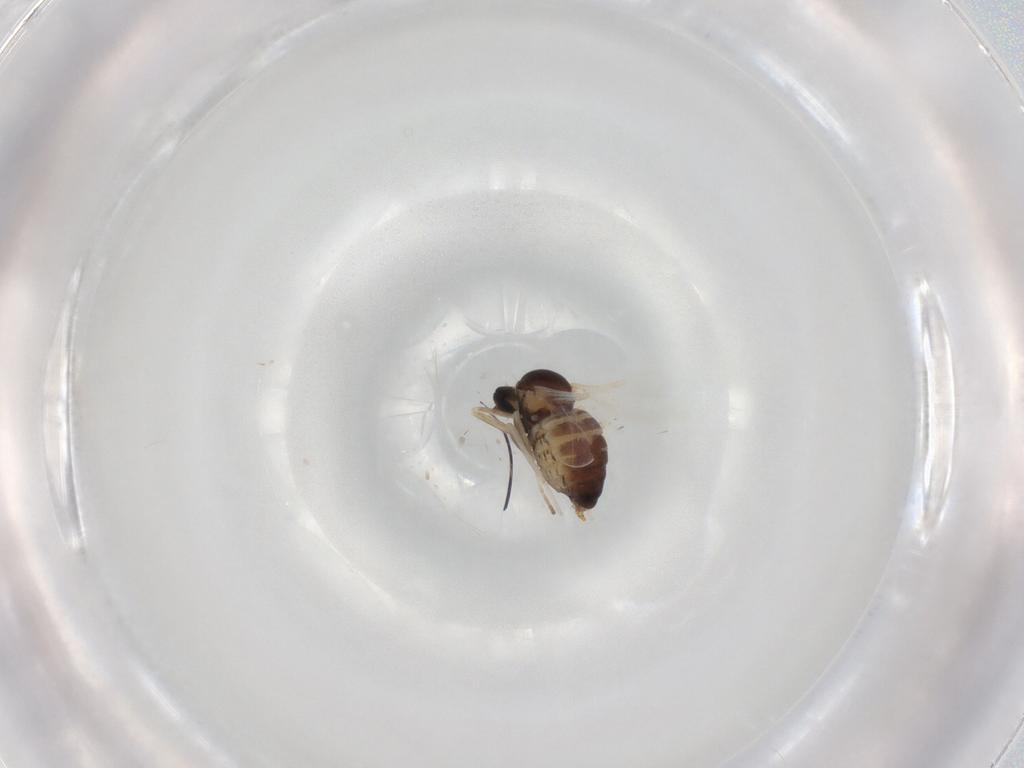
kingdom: Animalia
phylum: Arthropoda
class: Insecta
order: Diptera
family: Cecidomyiidae
